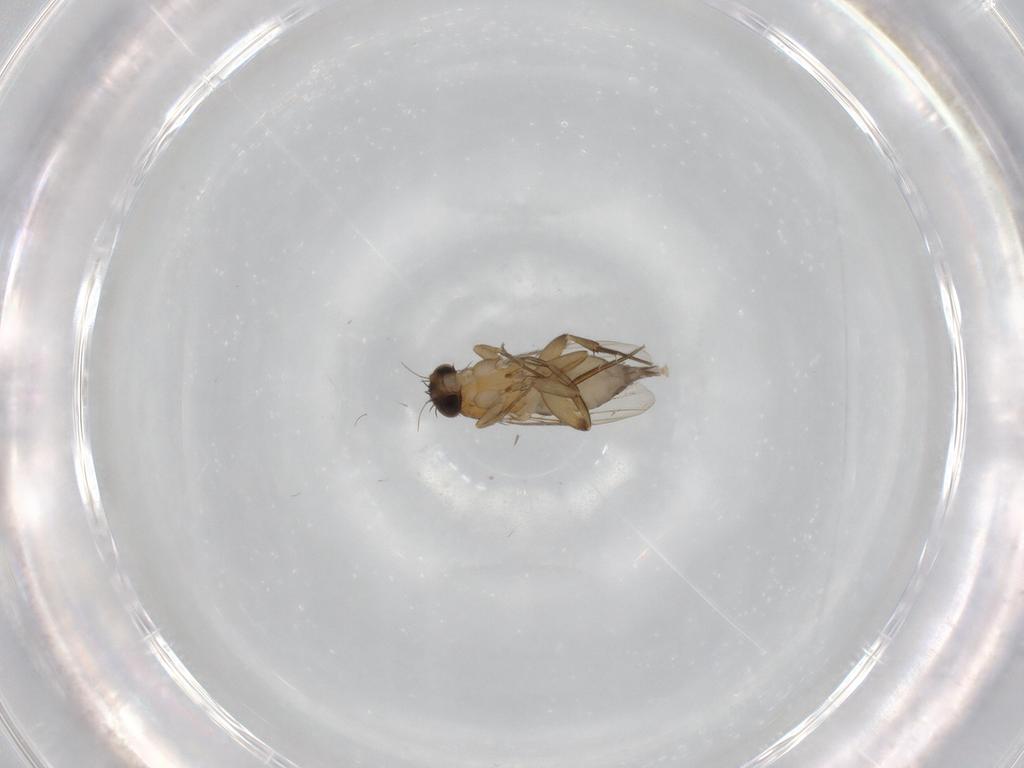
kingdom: Animalia
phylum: Arthropoda
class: Insecta
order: Diptera
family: Phoridae
